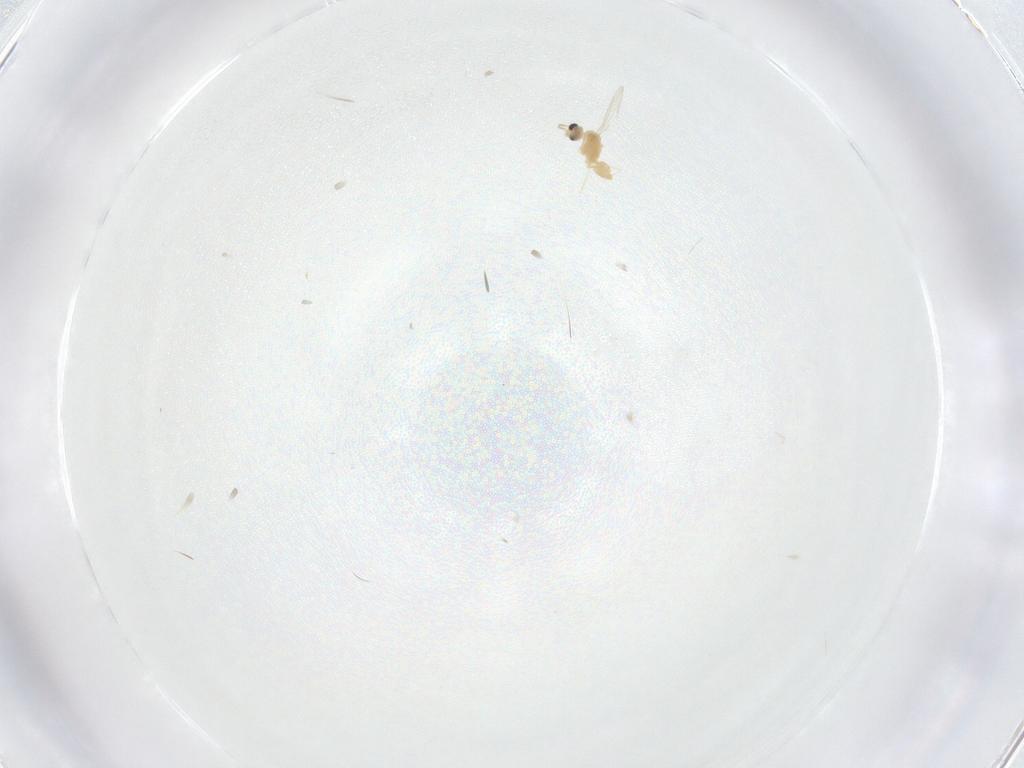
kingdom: Animalia
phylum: Arthropoda
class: Insecta
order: Diptera
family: Cecidomyiidae
